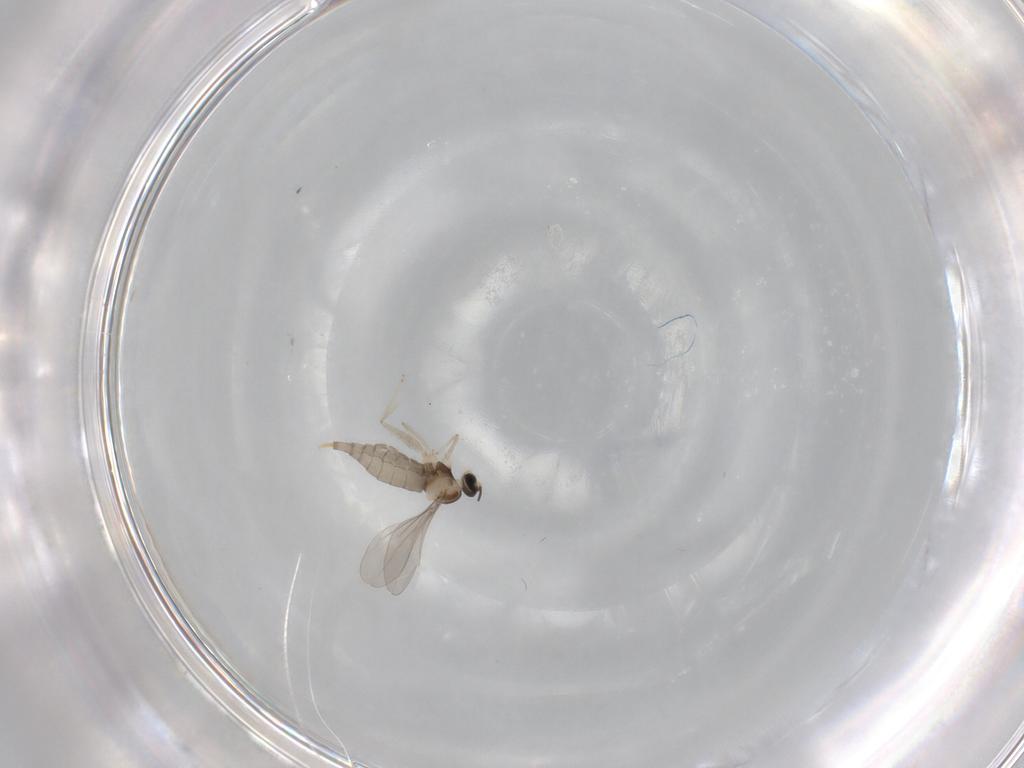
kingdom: Animalia
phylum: Arthropoda
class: Insecta
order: Diptera
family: Cecidomyiidae
